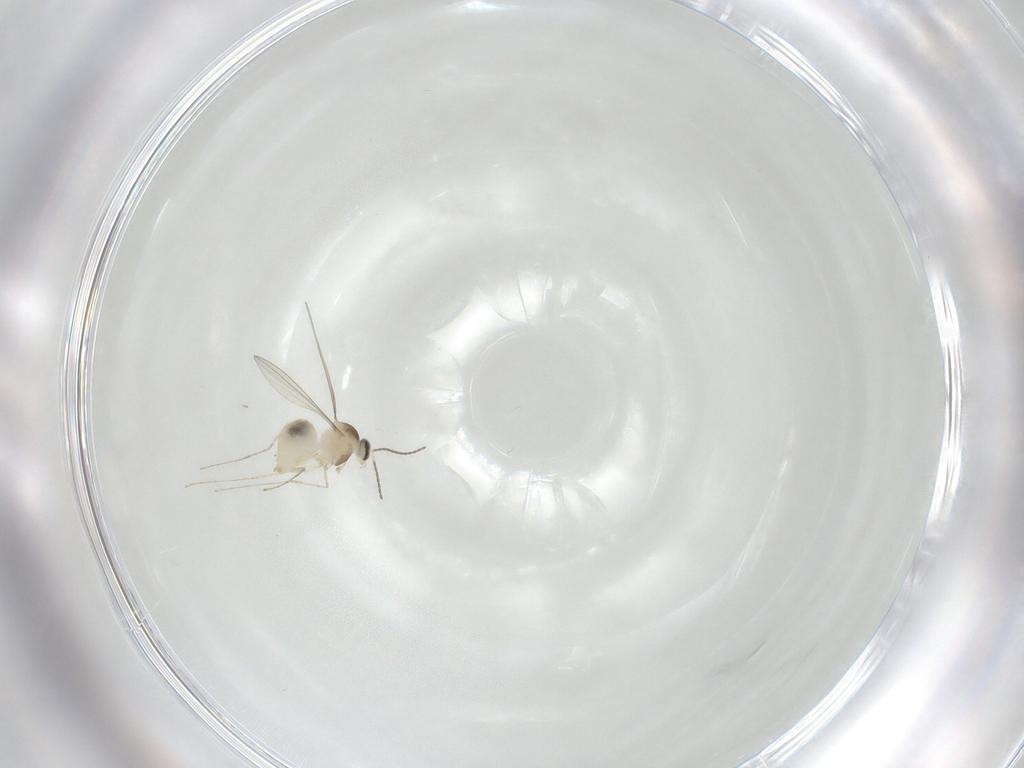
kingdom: Animalia
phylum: Arthropoda
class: Insecta
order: Diptera
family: Cecidomyiidae
